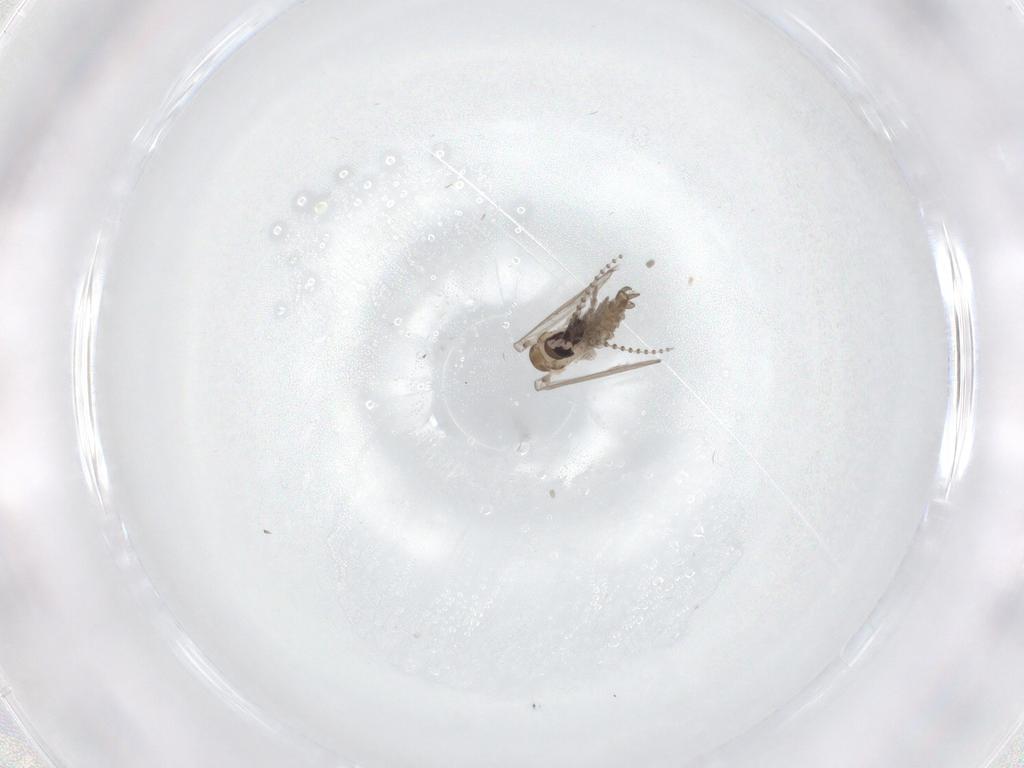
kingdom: Animalia
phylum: Arthropoda
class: Insecta
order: Diptera
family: Psychodidae
